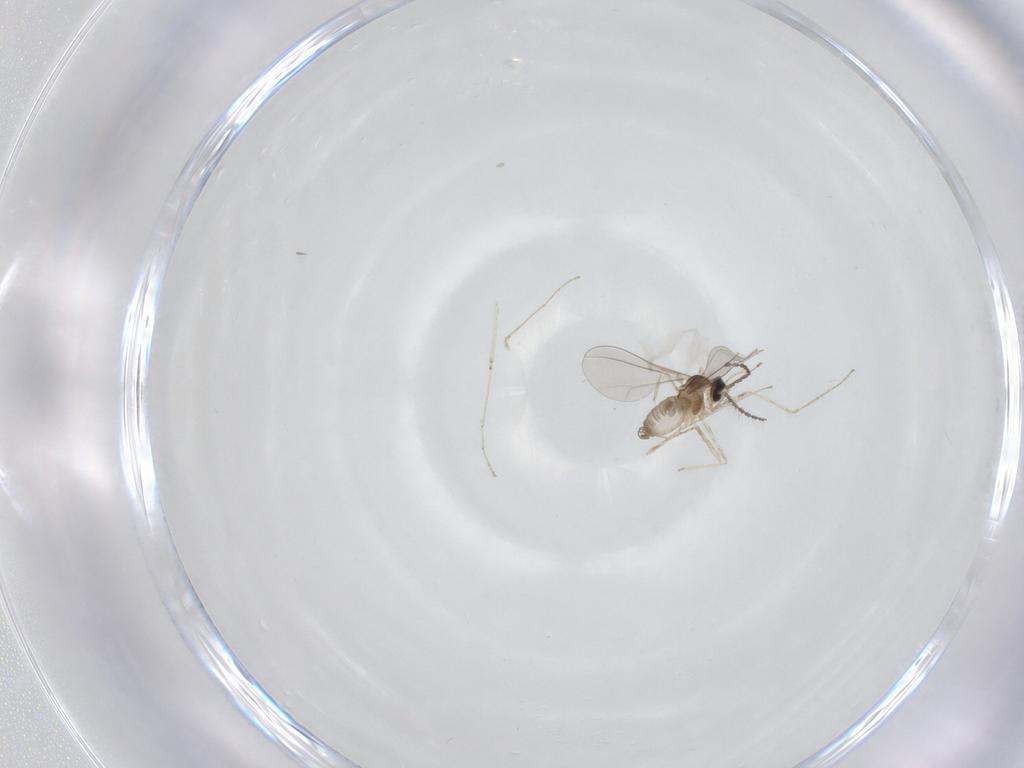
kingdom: Animalia
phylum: Arthropoda
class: Insecta
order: Diptera
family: Cecidomyiidae
